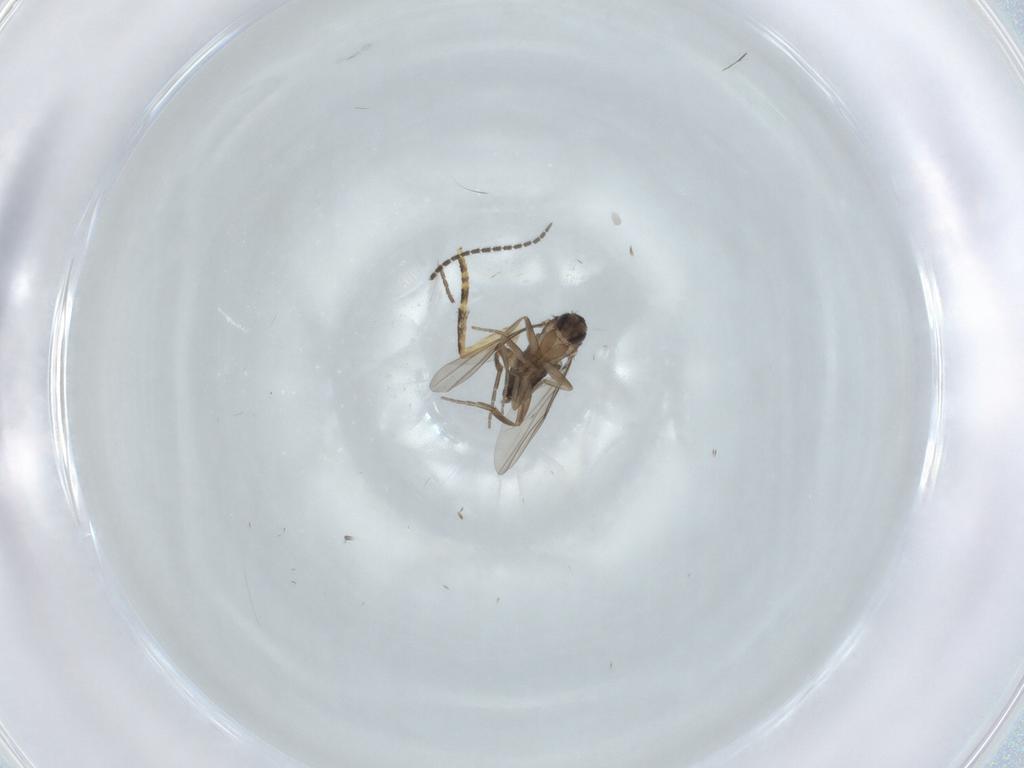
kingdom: Animalia
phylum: Arthropoda
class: Insecta
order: Diptera
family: Phoridae
